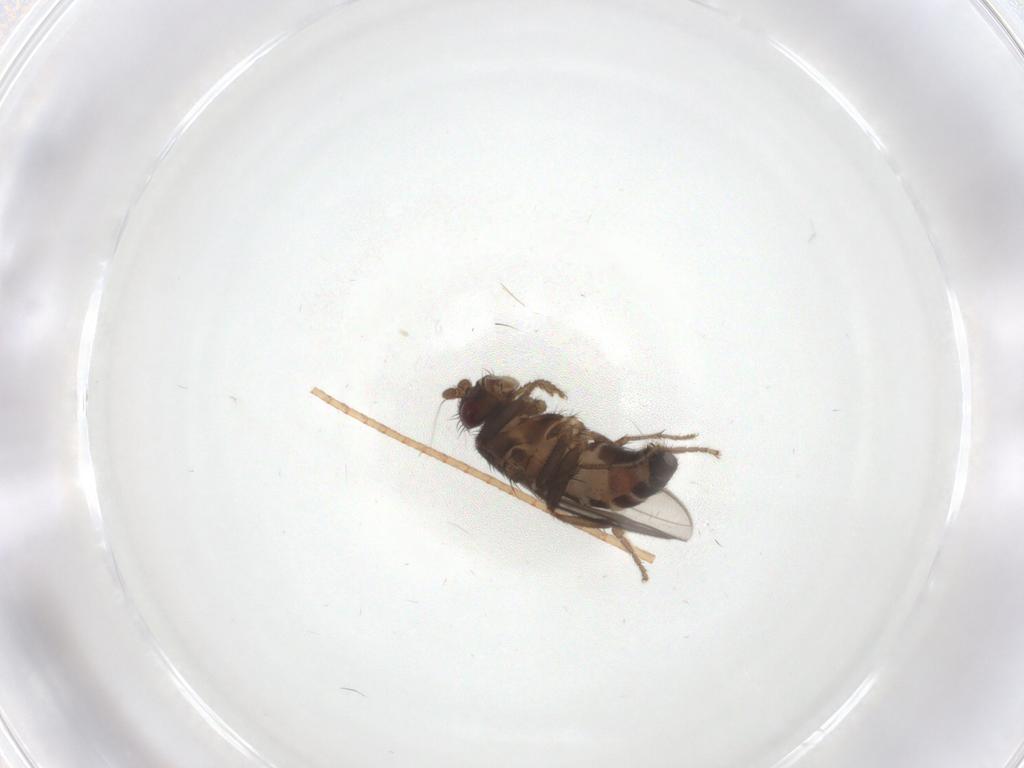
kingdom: Animalia
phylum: Arthropoda
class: Insecta
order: Diptera
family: Sphaeroceridae
